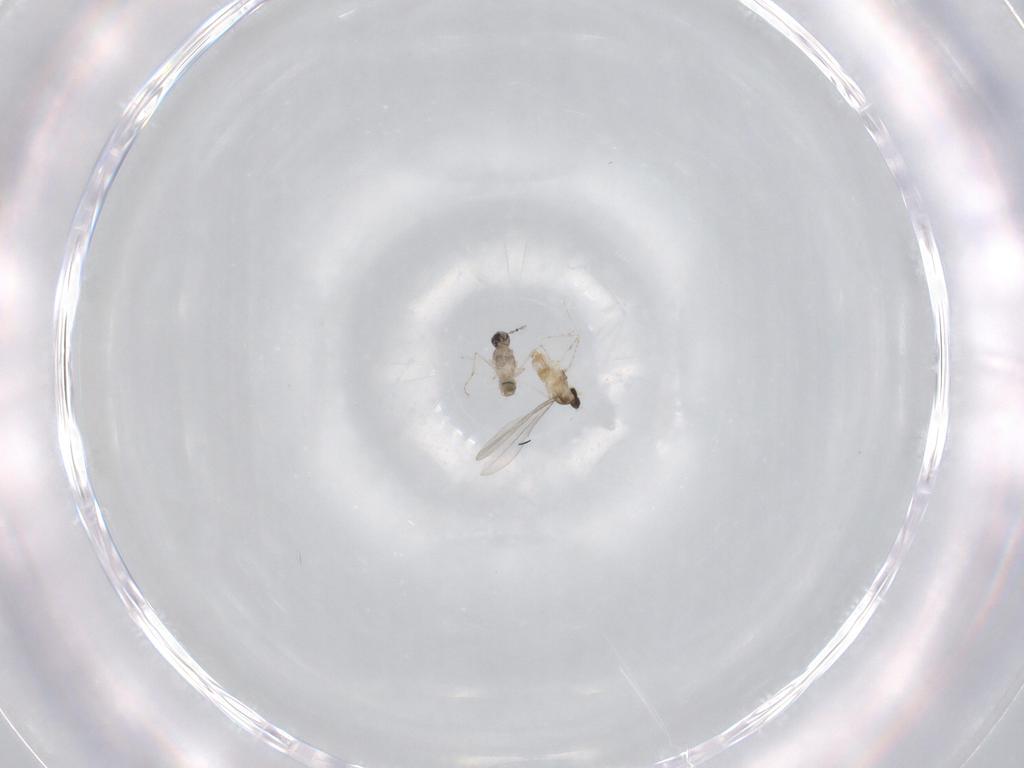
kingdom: Animalia
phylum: Arthropoda
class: Insecta
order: Diptera
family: Cecidomyiidae
